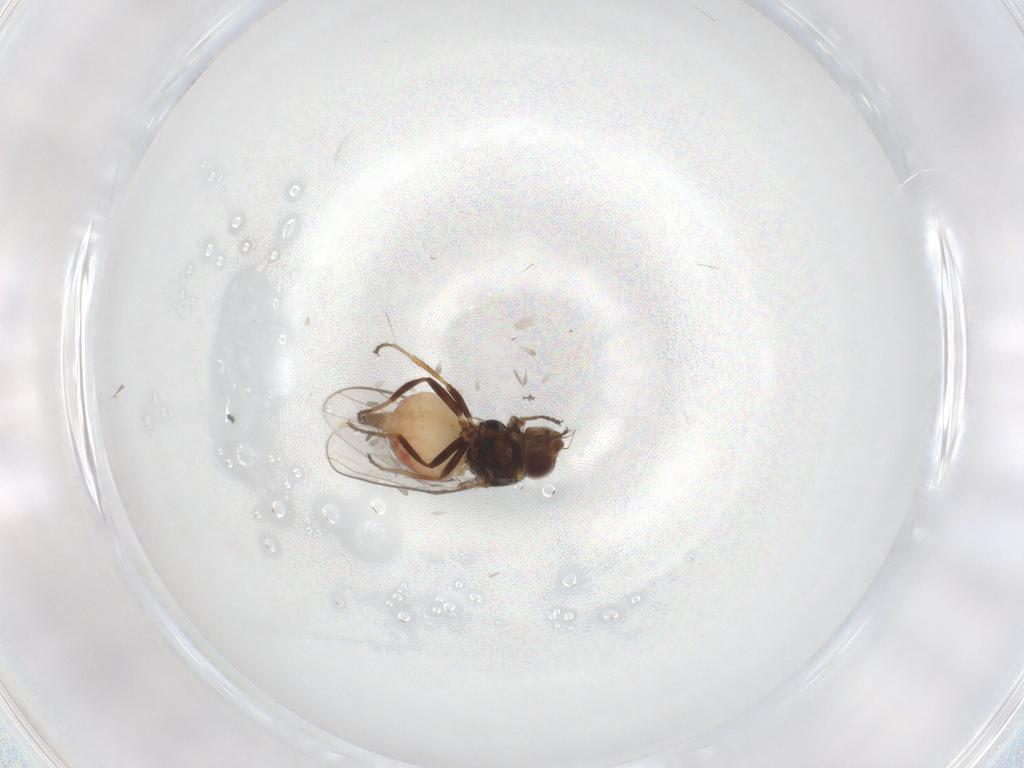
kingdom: Animalia
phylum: Arthropoda
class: Insecta
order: Diptera
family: Chloropidae
